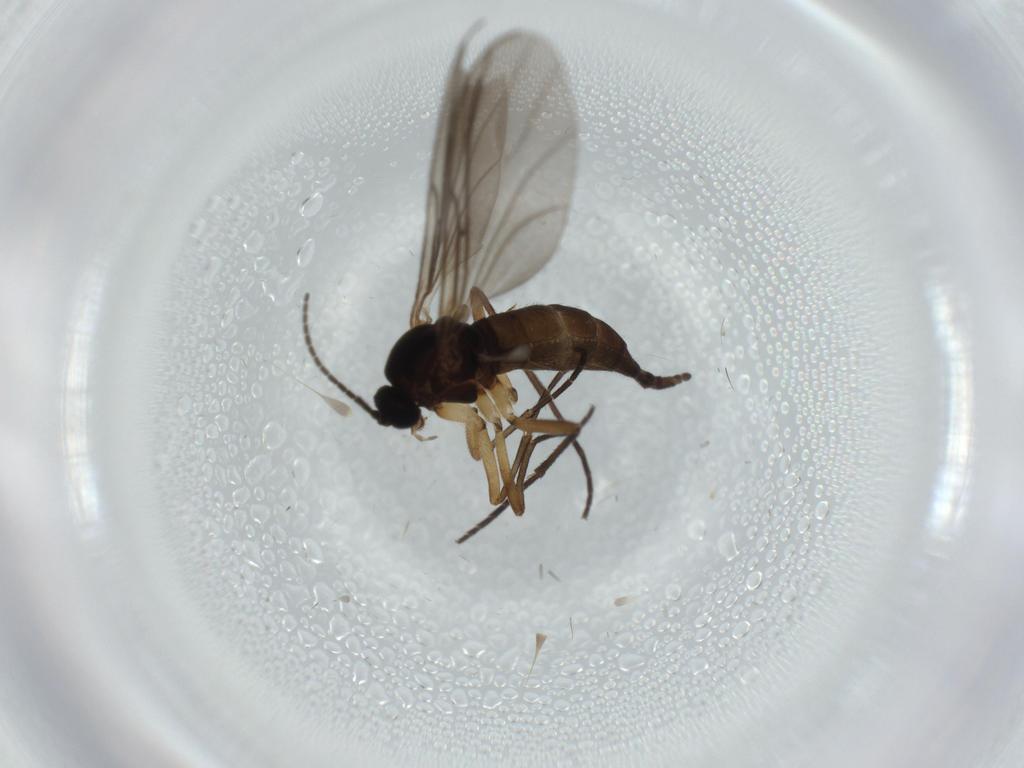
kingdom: Animalia
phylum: Arthropoda
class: Insecta
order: Diptera
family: Sciaridae
